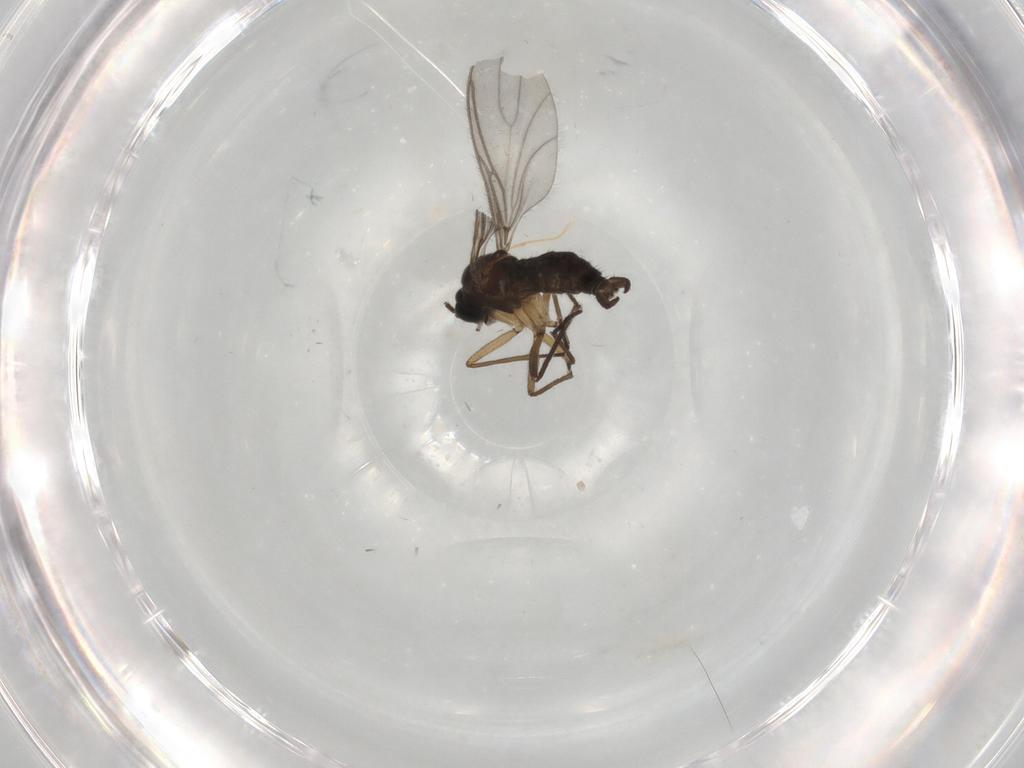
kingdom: Animalia
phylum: Arthropoda
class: Insecta
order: Diptera
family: Sciaridae
